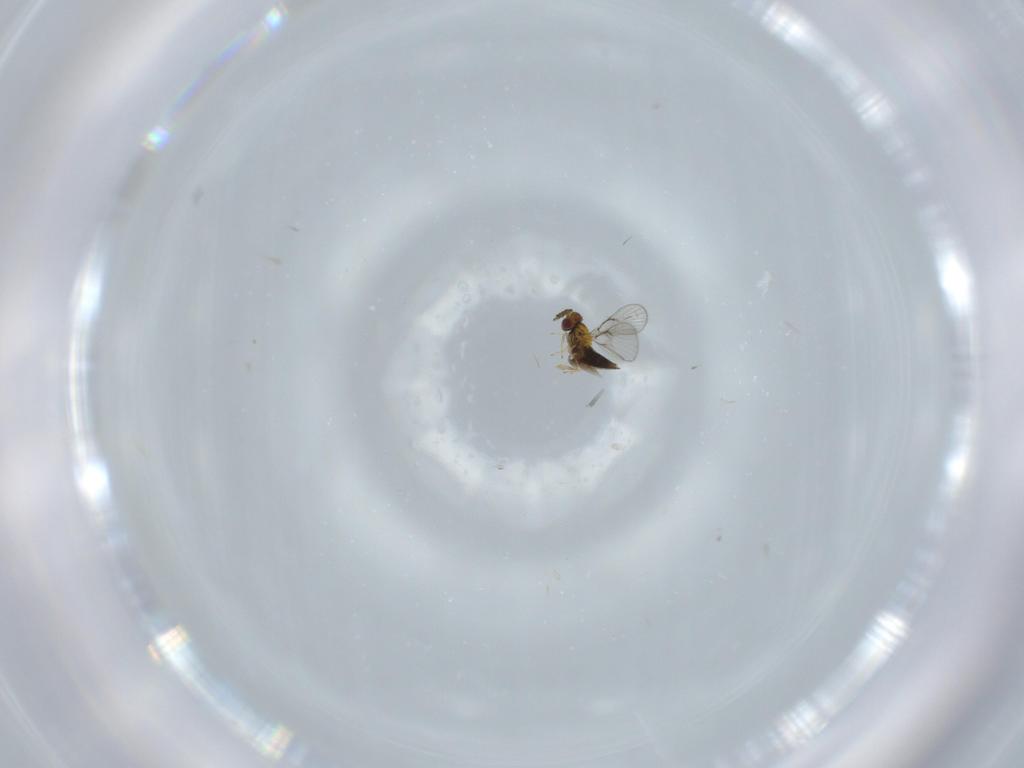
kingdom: Animalia
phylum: Arthropoda
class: Insecta
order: Hymenoptera
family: Trichogrammatidae
